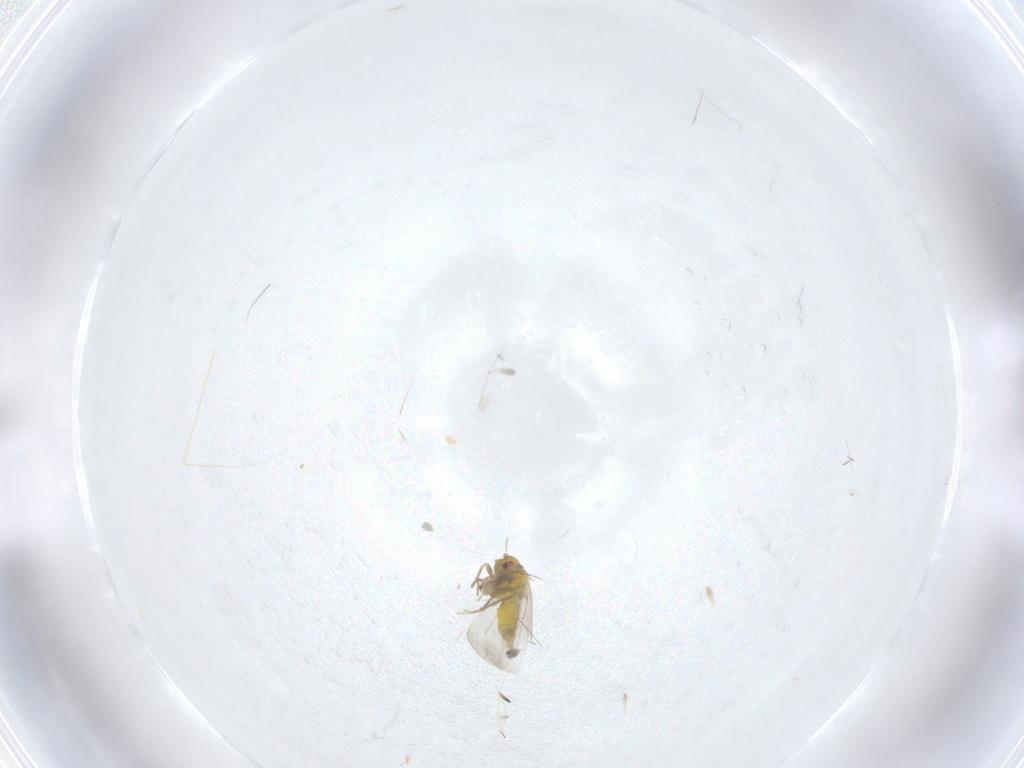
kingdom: Animalia
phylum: Arthropoda
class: Insecta
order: Hemiptera
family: Aleyrodidae
